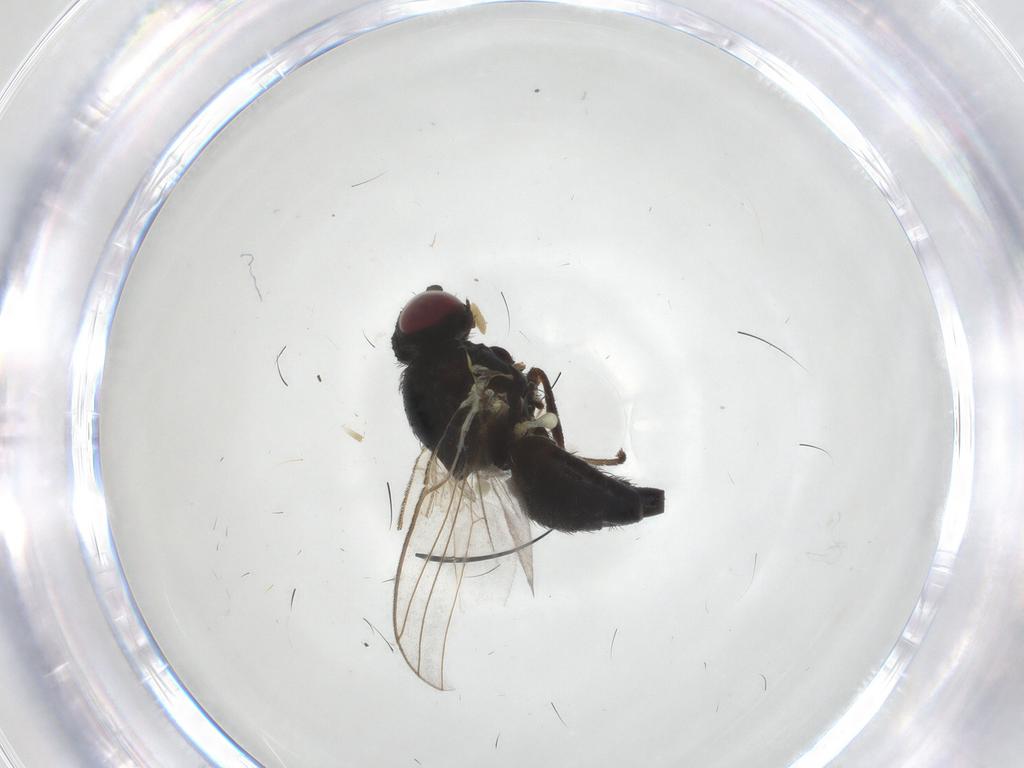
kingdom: Animalia
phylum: Arthropoda
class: Insecta
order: Diptera
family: Agromyzidae
